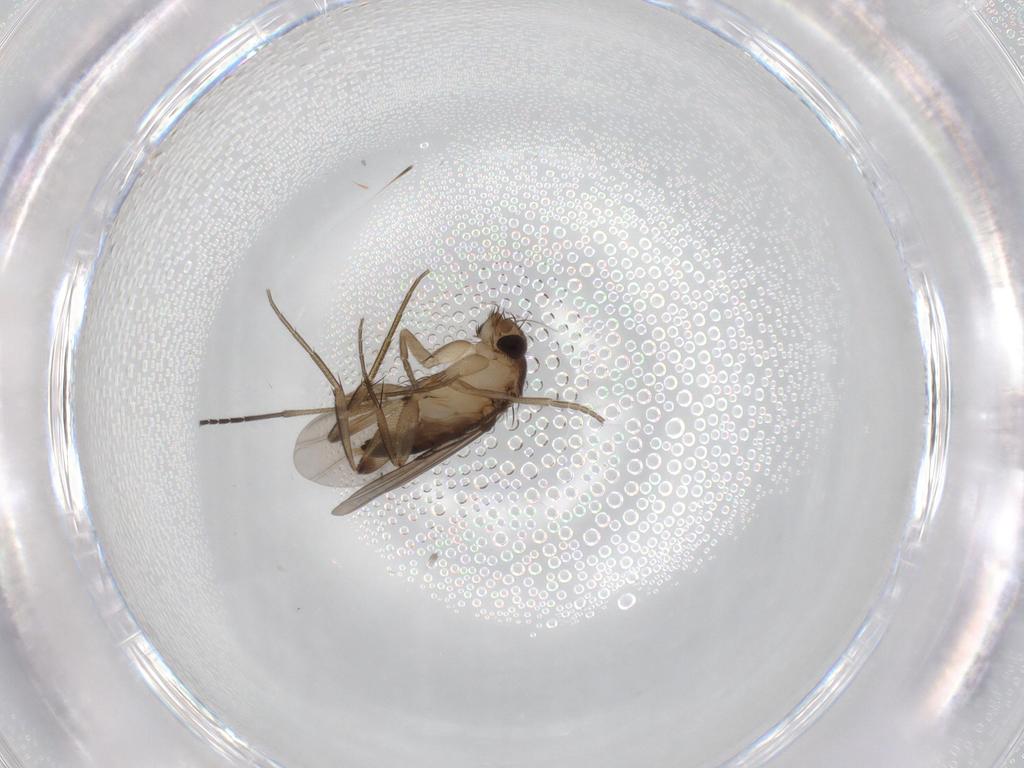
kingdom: Animalia
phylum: Arthropoda
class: Insecta
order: Diptera
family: Phoridae
